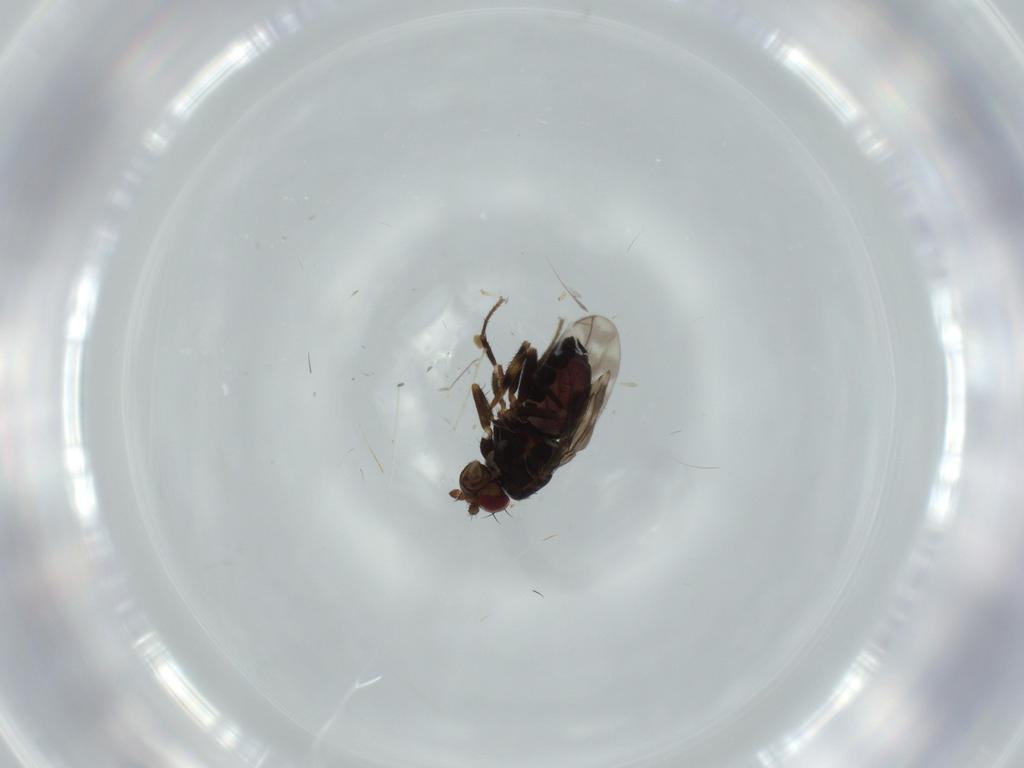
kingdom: Animalia
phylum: Arthropoda
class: Insecta
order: Diptera
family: Sphaeroceridae
